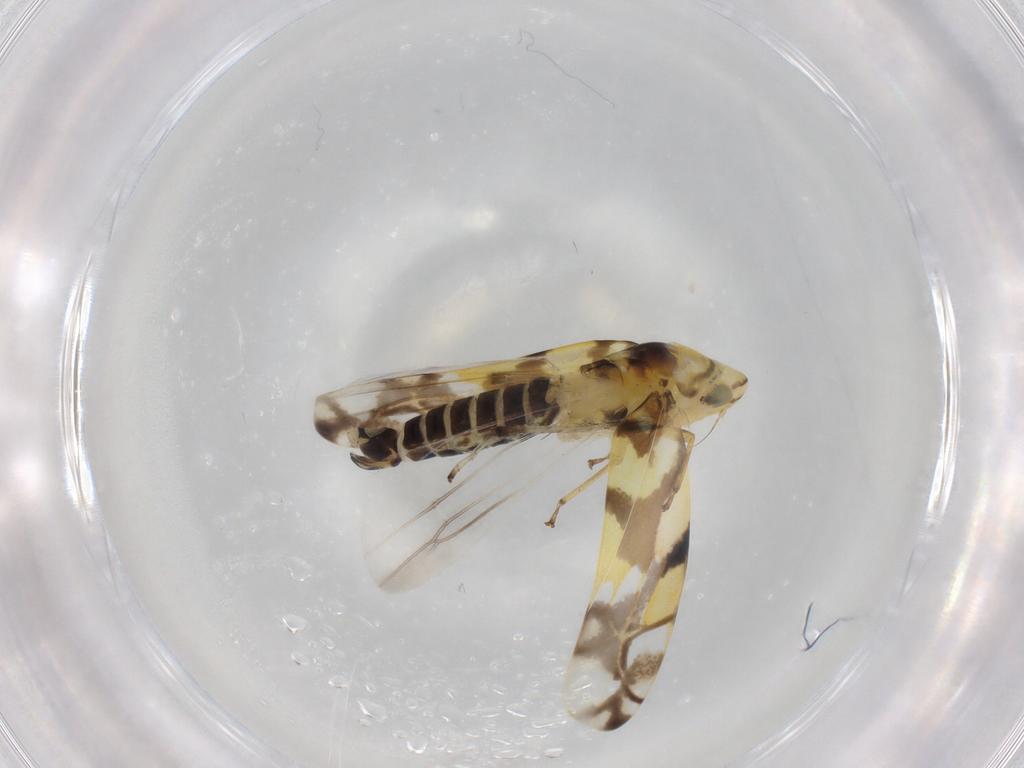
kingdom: Animalia
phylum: Arthropoda
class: Insecta
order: Hemiptera
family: Cicadellidae
